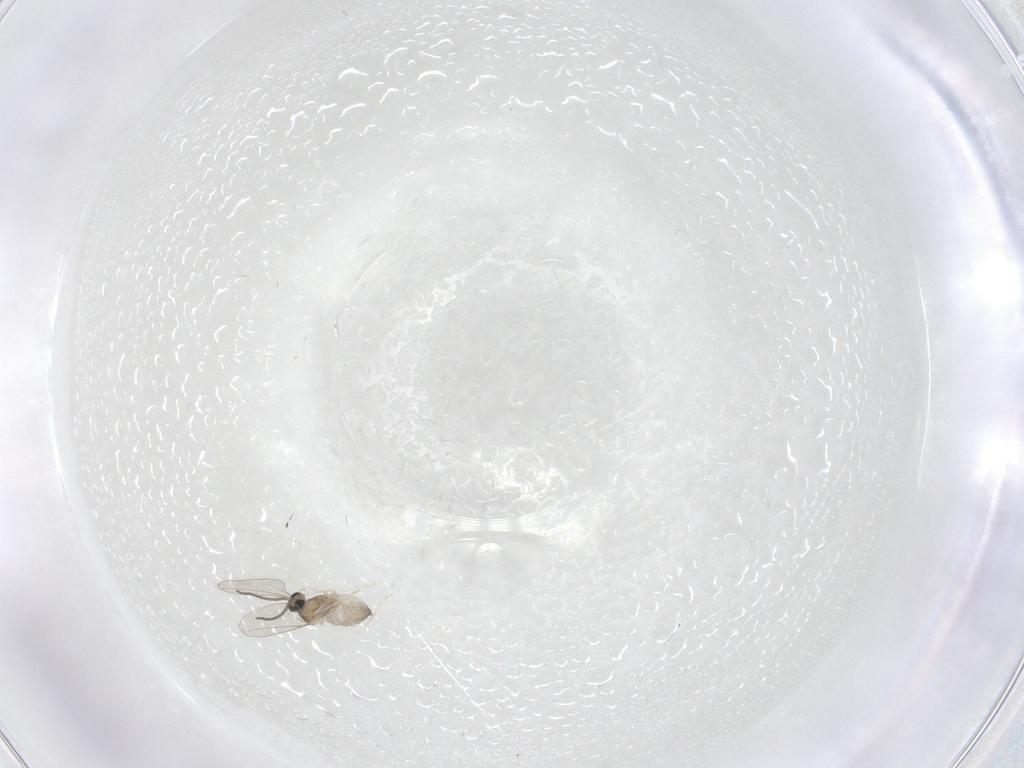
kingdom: Animalia
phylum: Arthropoda
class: Insecta
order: Diptera
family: Cecidomyiidae
